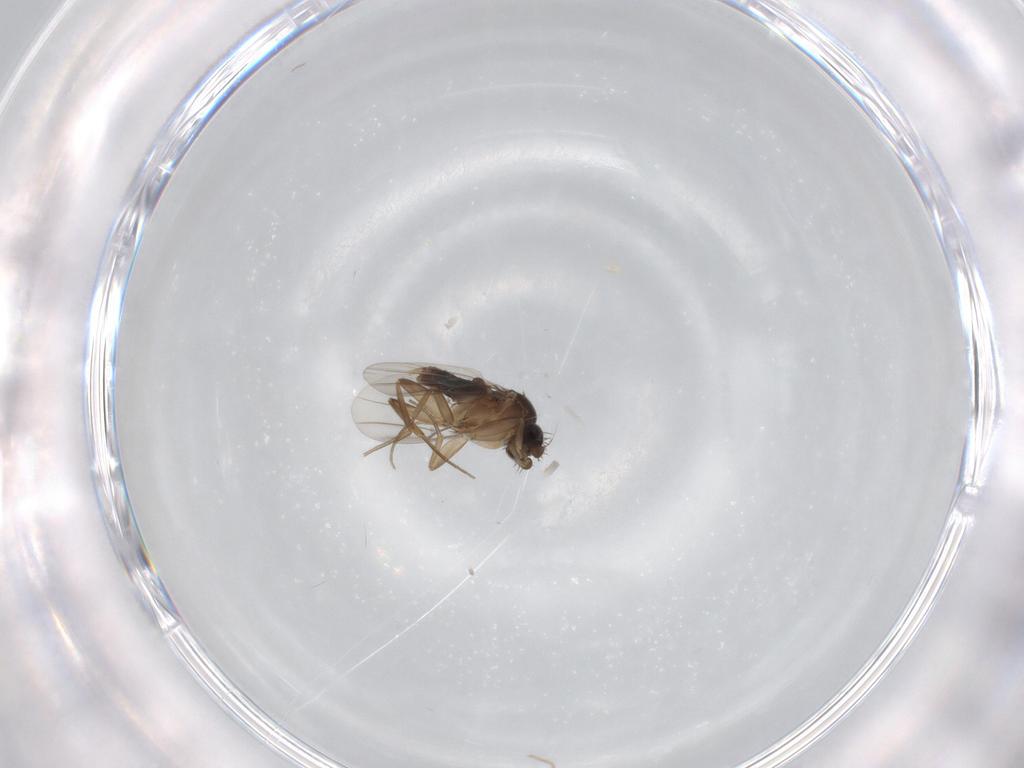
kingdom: Animalia
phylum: Arthropoda
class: Insecta
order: Diptera
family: Phoridae
